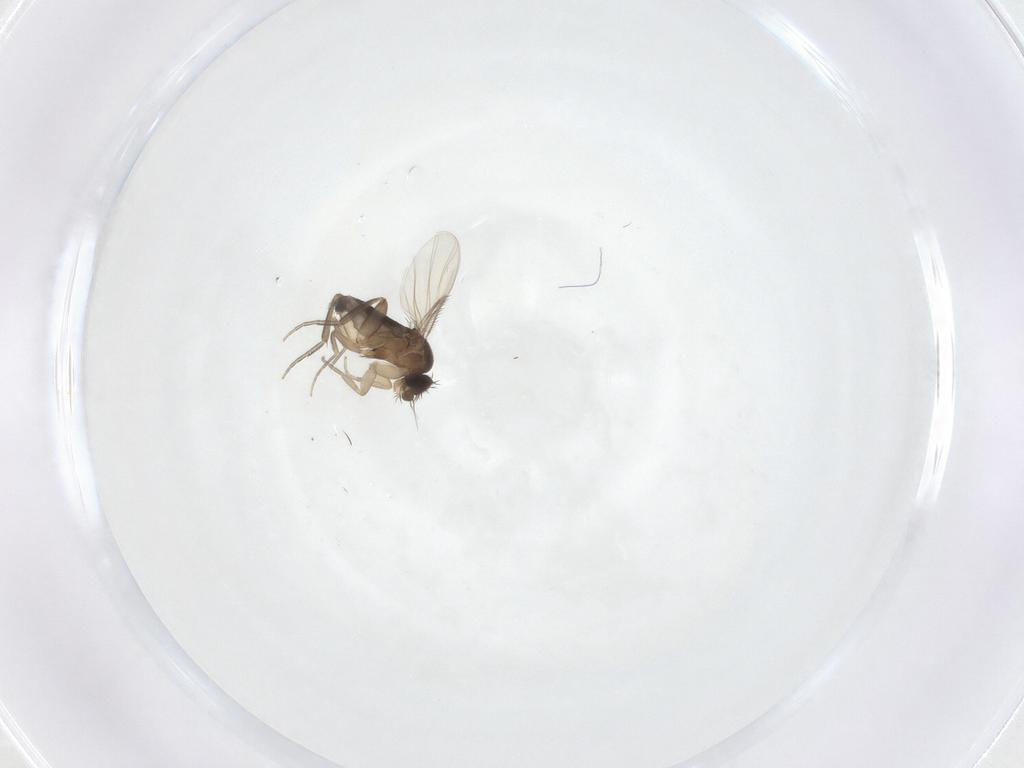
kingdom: Animalia
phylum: Arthropoda
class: Insecta
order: Diptera
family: Phoridae
